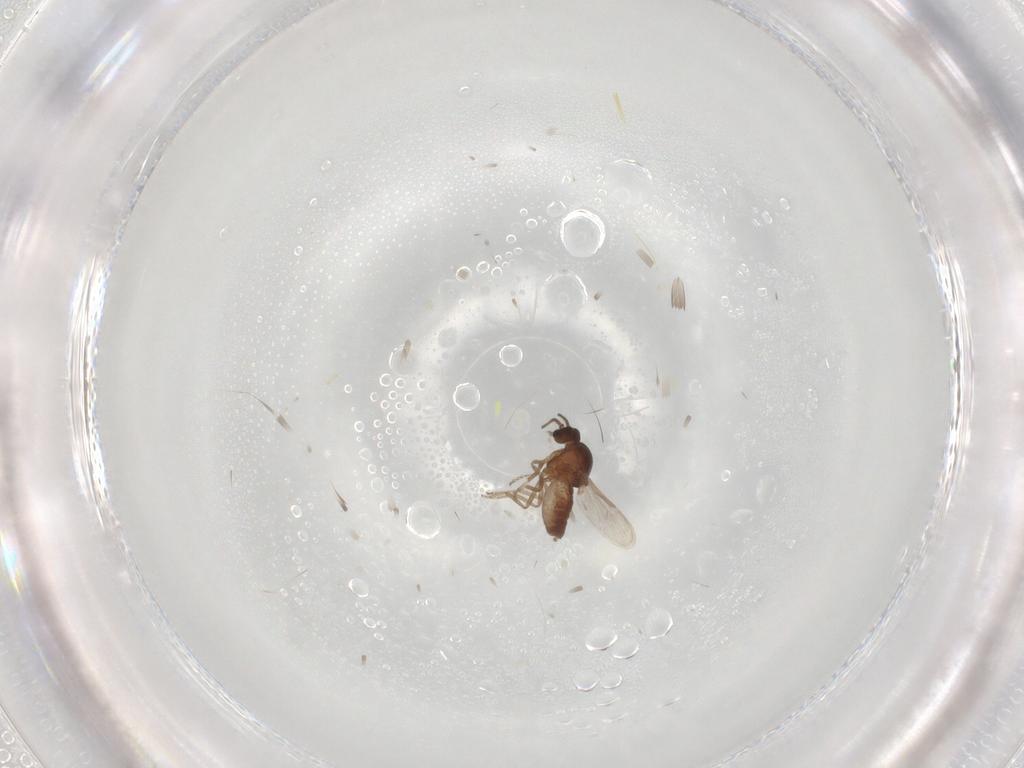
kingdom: Animalia
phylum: Arthropoda
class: Insecta
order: Diptera
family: Ceratopogonidae
